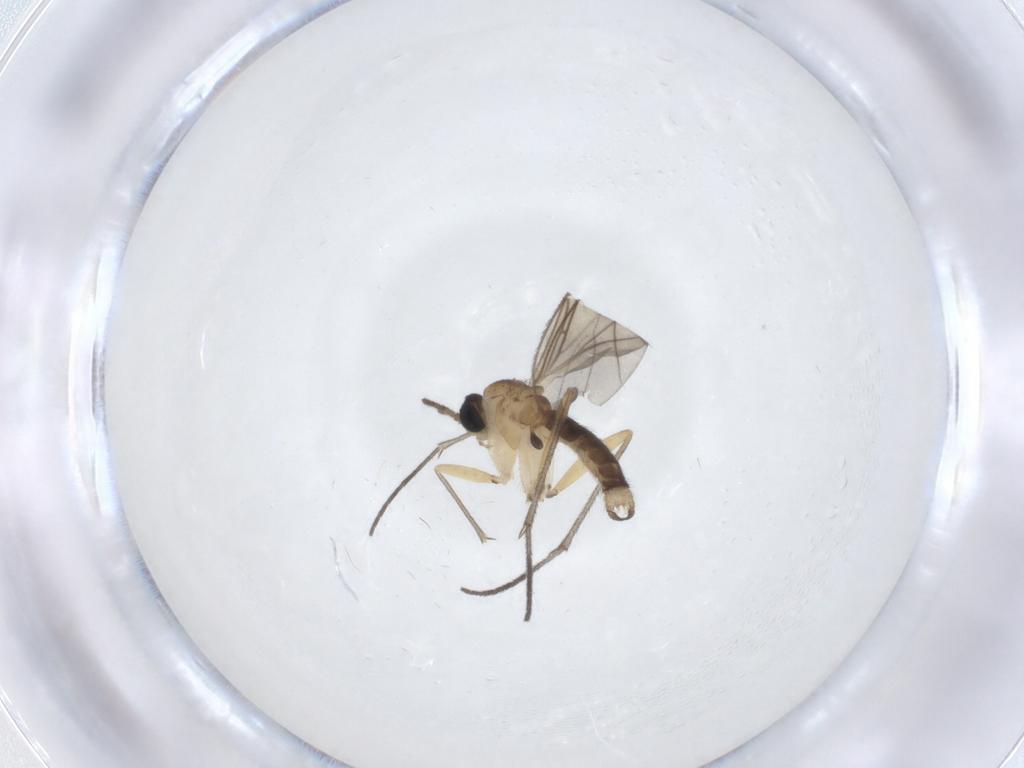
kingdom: Animalia
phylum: Arthropoda
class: Insecta
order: Diptera
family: Sciaridae
